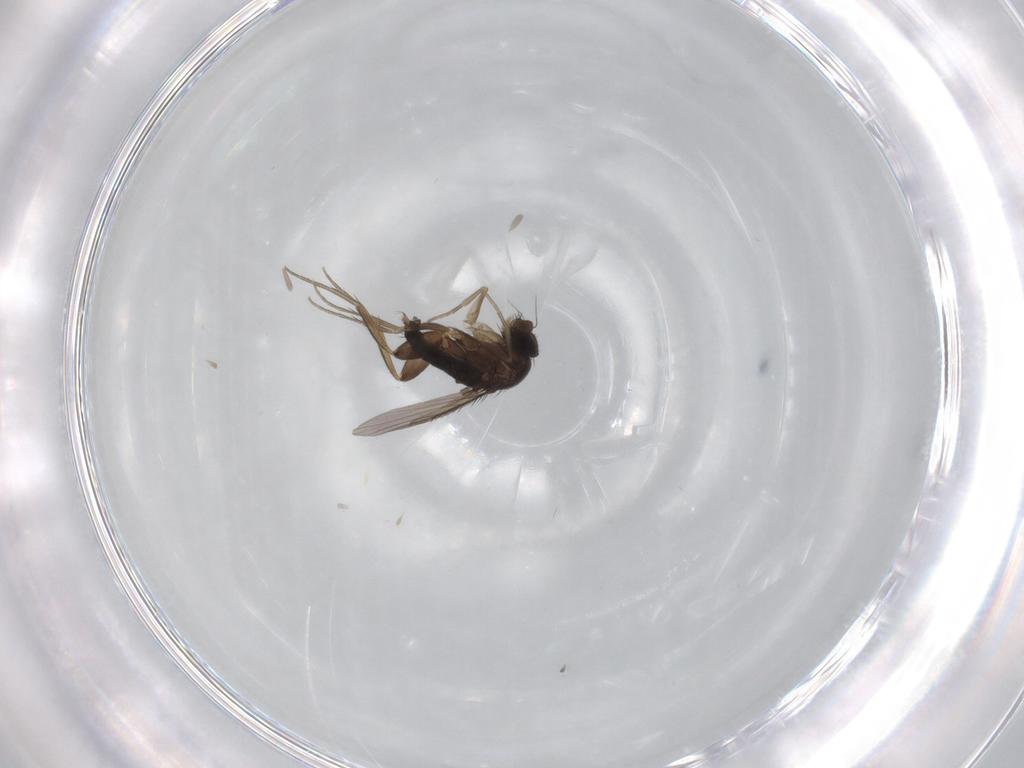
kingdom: Animalia
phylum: Arthropoda
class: Insecta
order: Diptera
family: Phoridae
